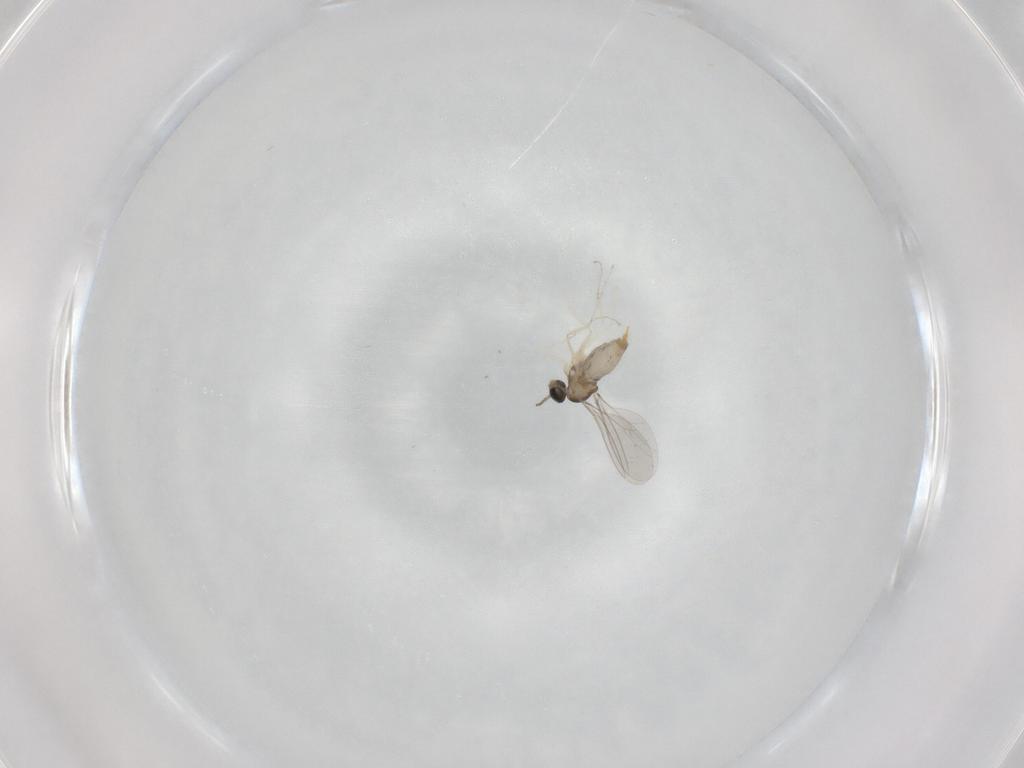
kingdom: Animalia
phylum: Arthropoda
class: Insecta
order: Diptera
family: Cecidomyiidae
